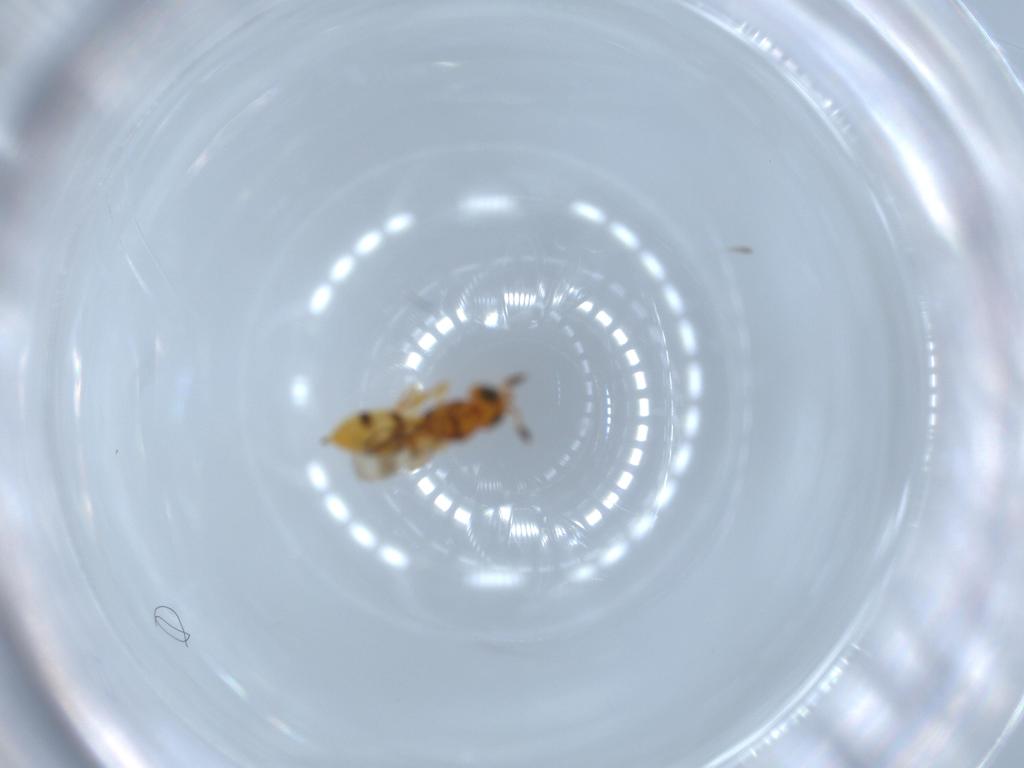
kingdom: Animalia
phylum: Arthropoda
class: Insecta
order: Hymenoptera
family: Scelionidae
